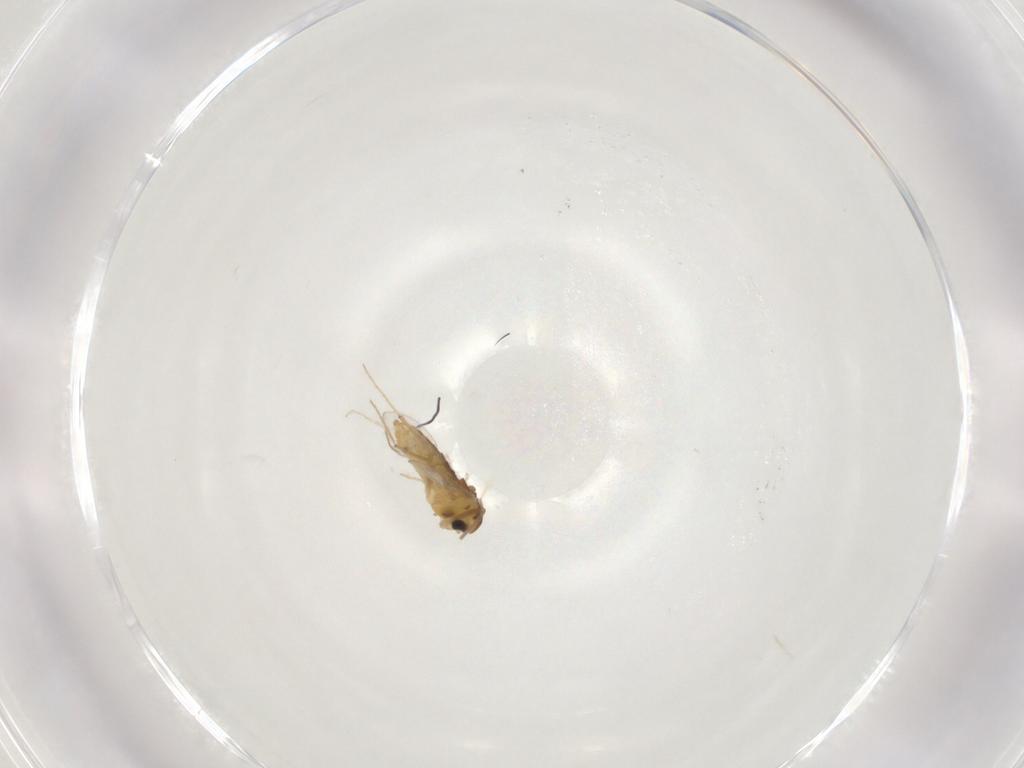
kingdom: Animalia
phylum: Arthropoda
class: Insecta
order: Diptera
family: Chironomidae
